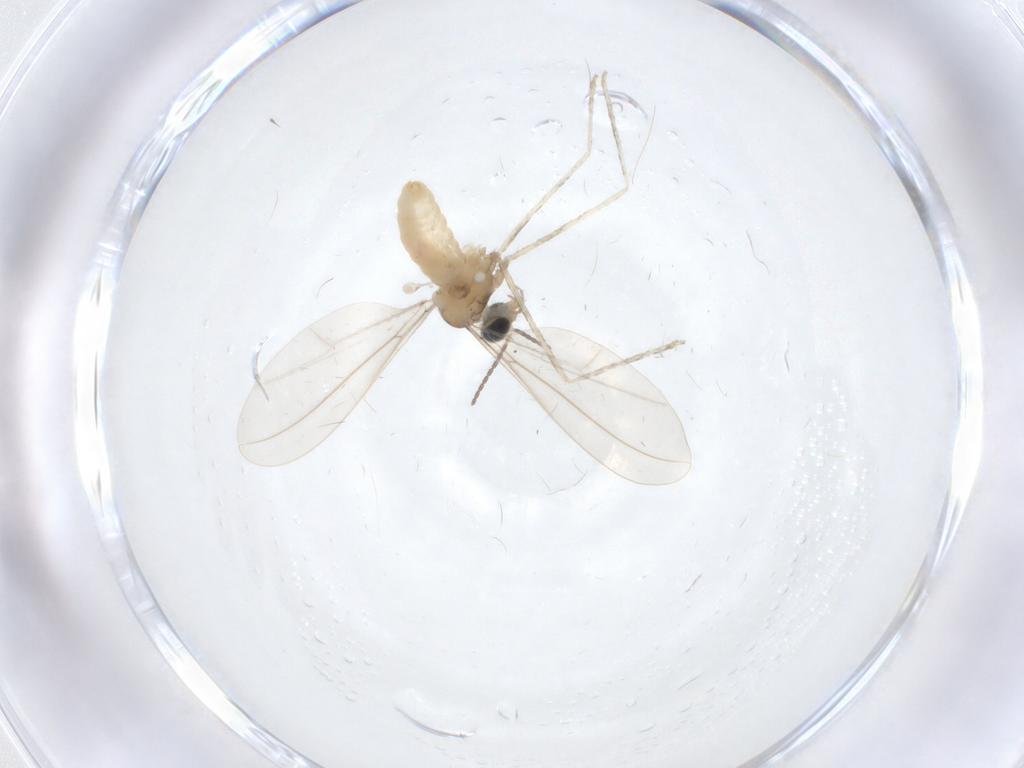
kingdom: Animalia
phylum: Arthropoda
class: Insecta
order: Diptera
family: Cecidomyiidae
